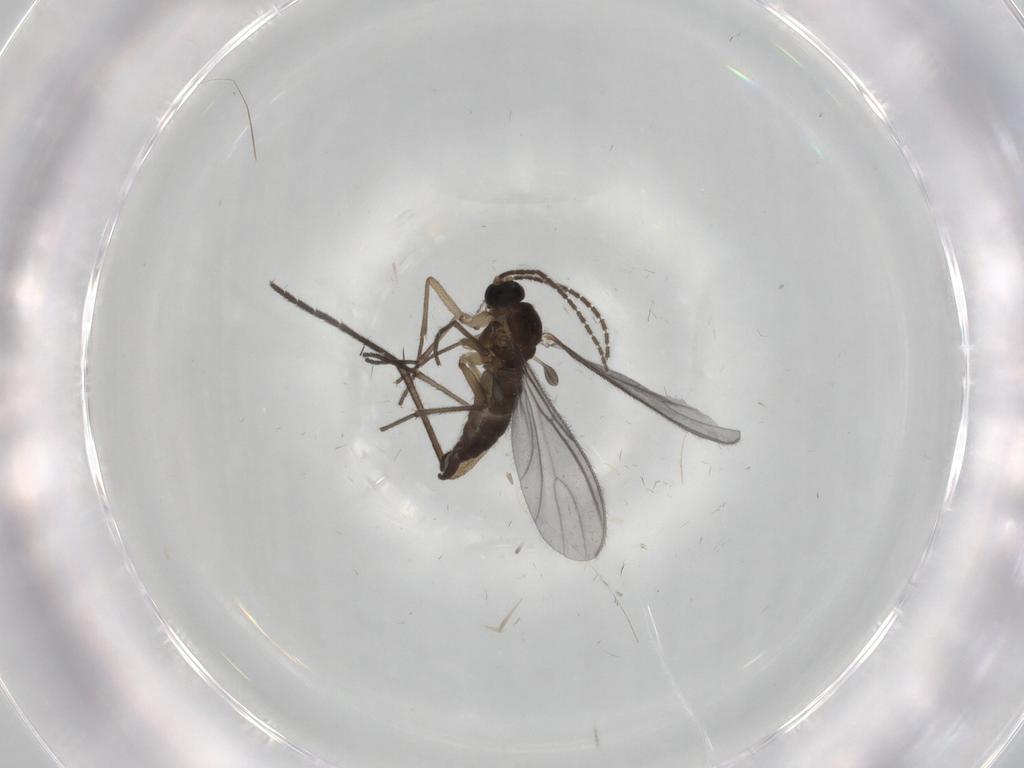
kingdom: Animalia
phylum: Arthropoda
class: Insecta
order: Diptera
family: Sciaridae
